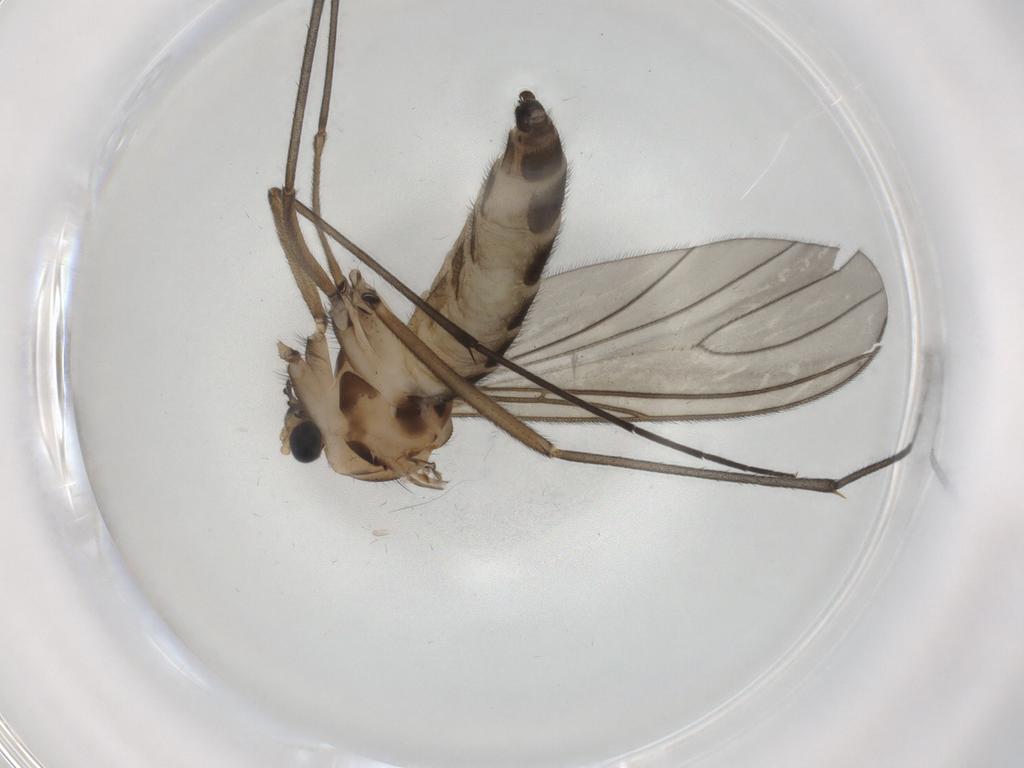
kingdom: Animalia
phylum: Arthropoda
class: Insecta
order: Diptera
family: Sciaridae
